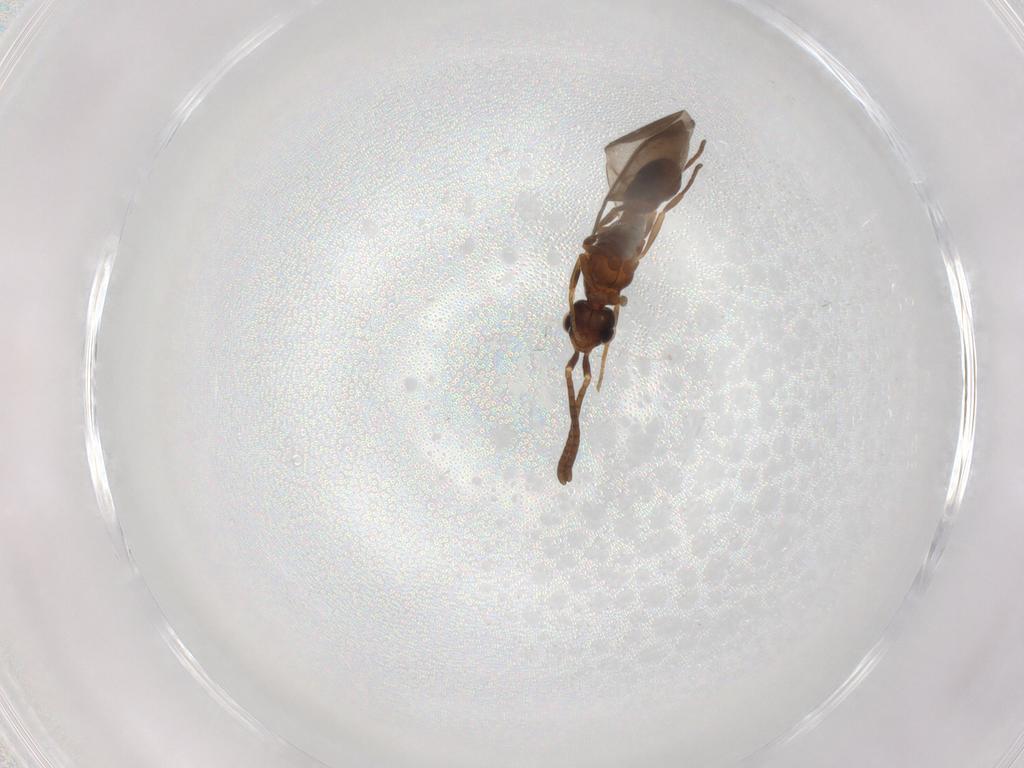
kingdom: Animalia
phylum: Arthropoda
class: Insecta
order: Hymenoptera
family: Formicidae
